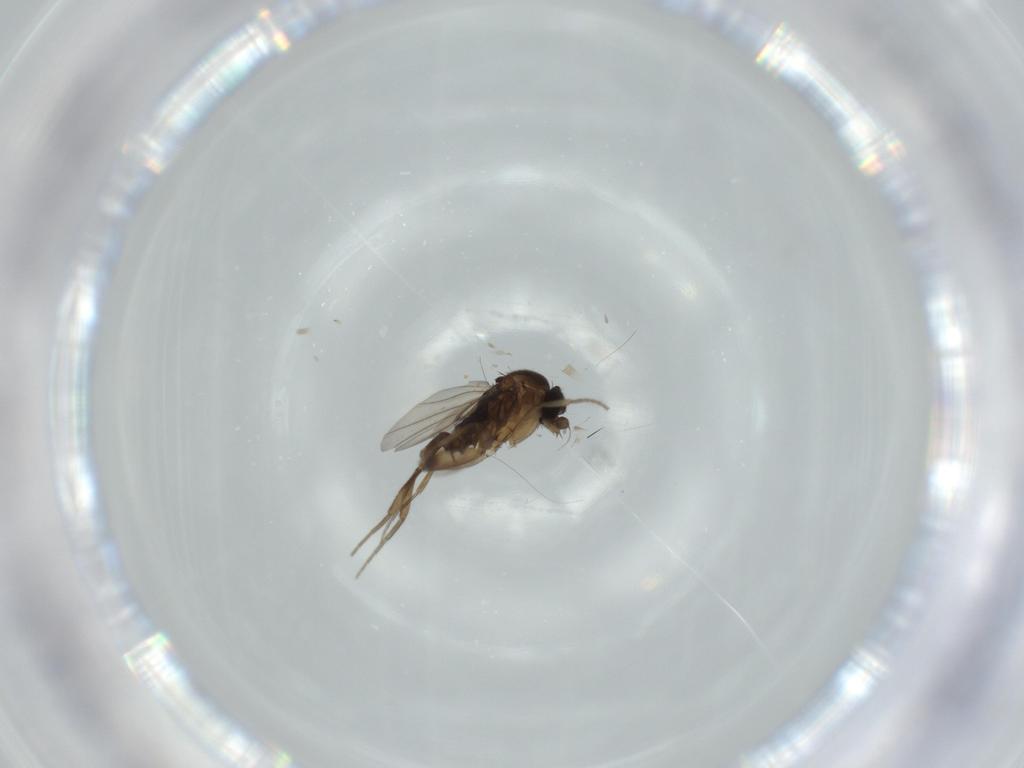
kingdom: Animalia
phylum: Arthropoda
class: Insecta
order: Diptera
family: Phoridae
